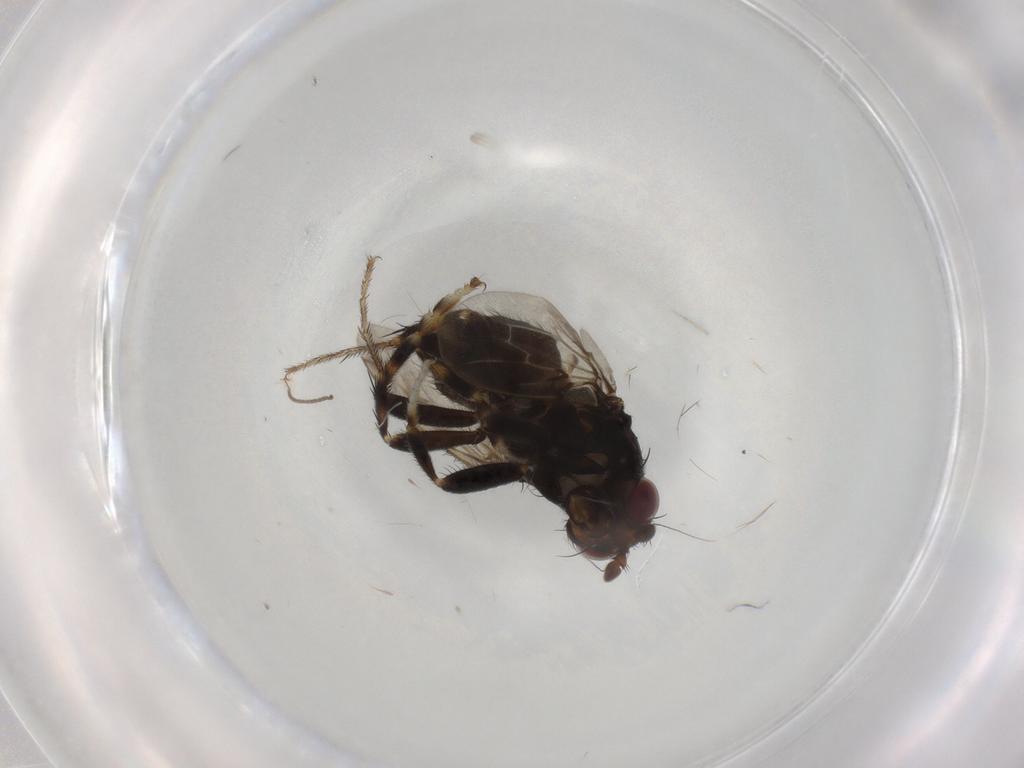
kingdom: Animalia
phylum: Arthropoda
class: Insecta
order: Diptera
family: Sphaeroceridae
